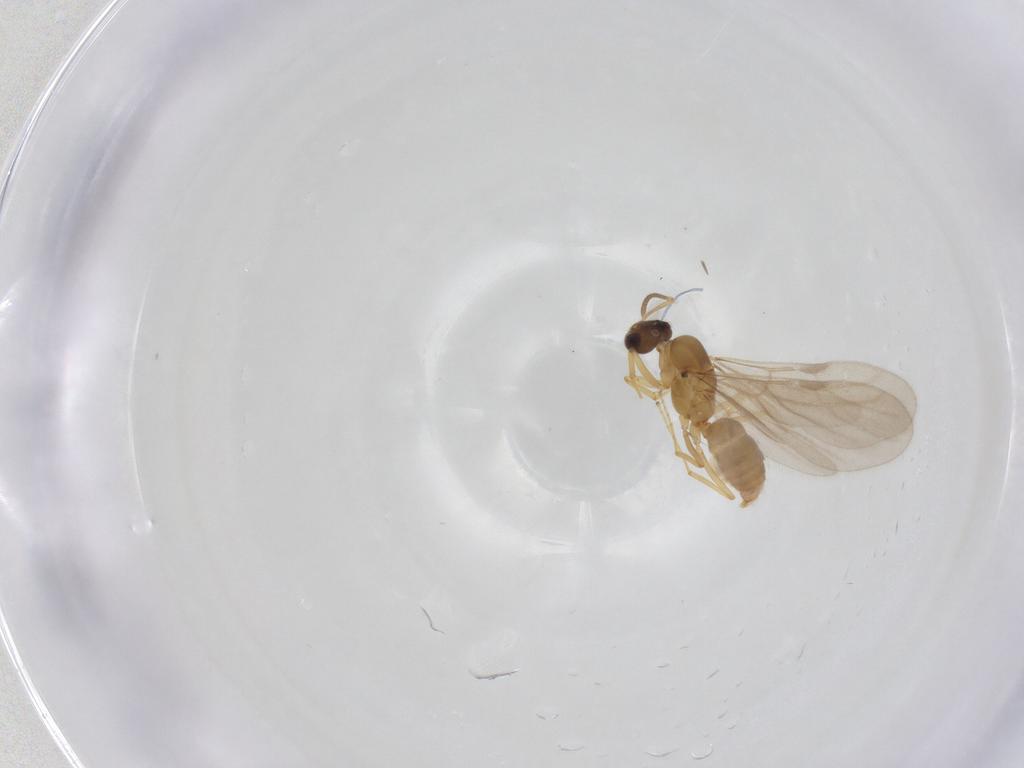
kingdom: Animalia
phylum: Arthropoda
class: Insecta
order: Hymenoptera
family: Formicidae
